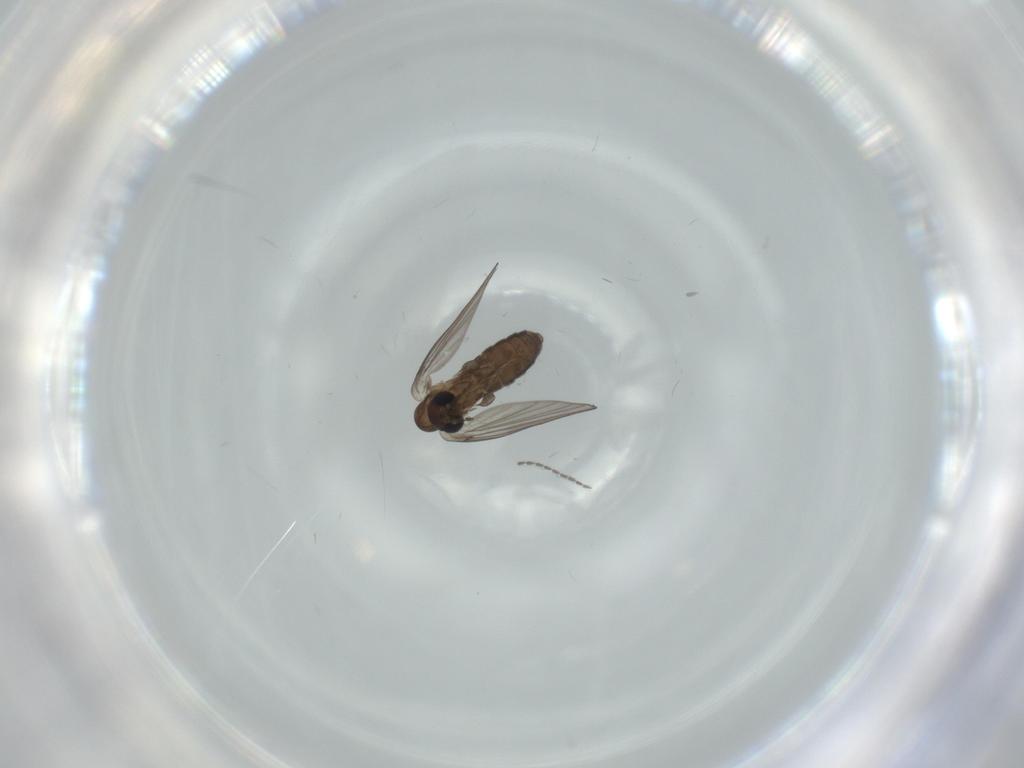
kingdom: Animalia
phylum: Arthropoda
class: Insecta
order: Diptera
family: Psychodidae
